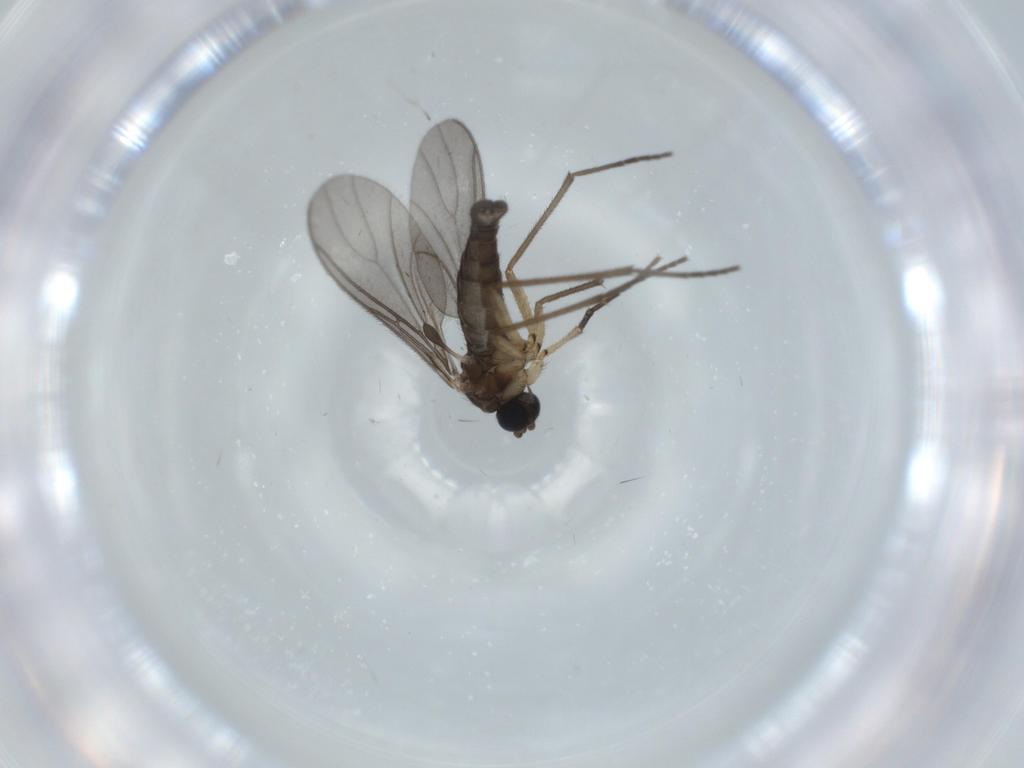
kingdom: Animalia
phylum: Arthropoda
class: Insecta
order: Diptera
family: Sciaridae
